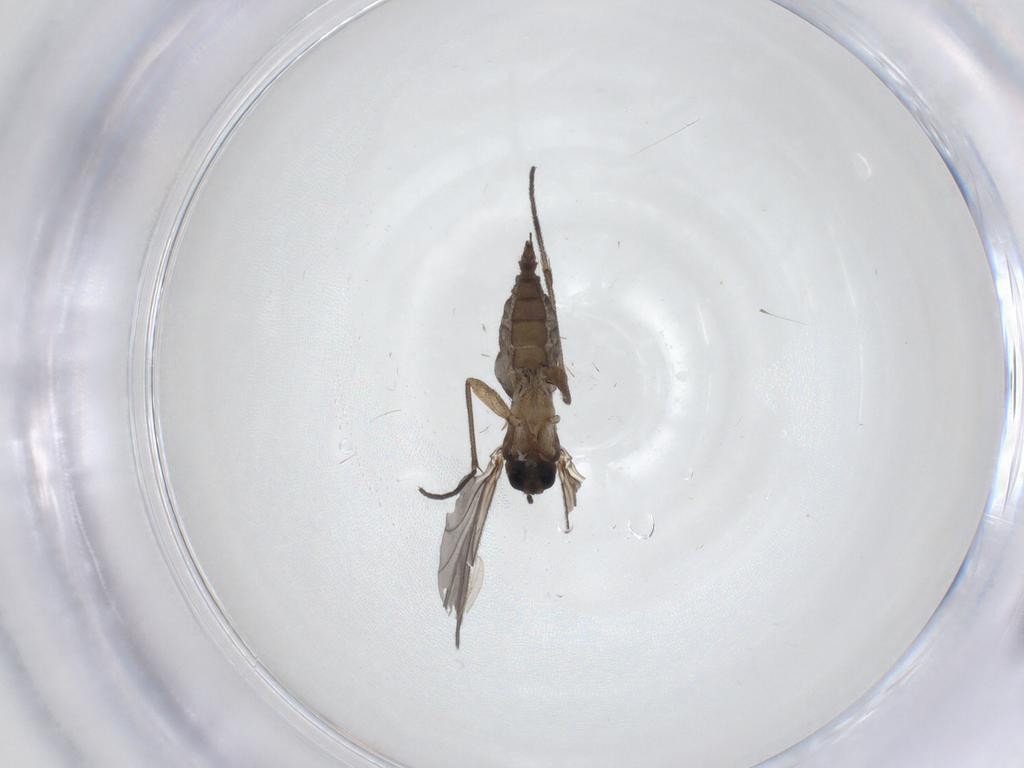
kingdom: Animalia
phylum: Arthropoda
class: Insecta
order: Diptera
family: Sciaridae
